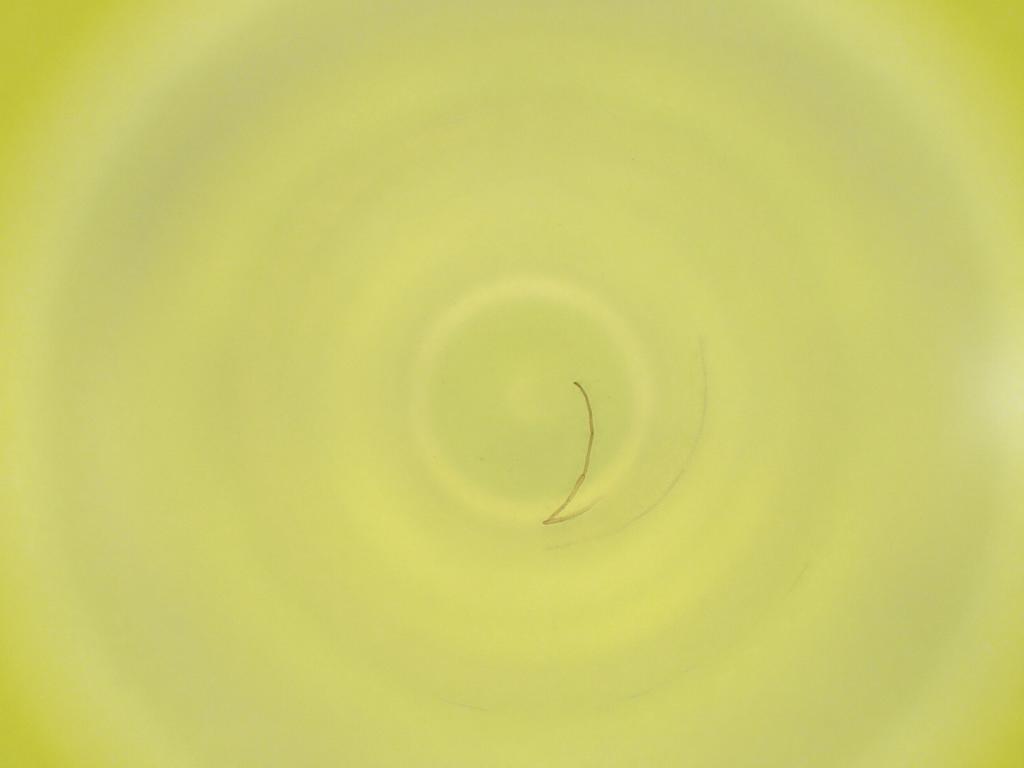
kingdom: Animalia
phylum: Arthropoda
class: Insecta
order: Diptera
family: Cecidomyiidae
